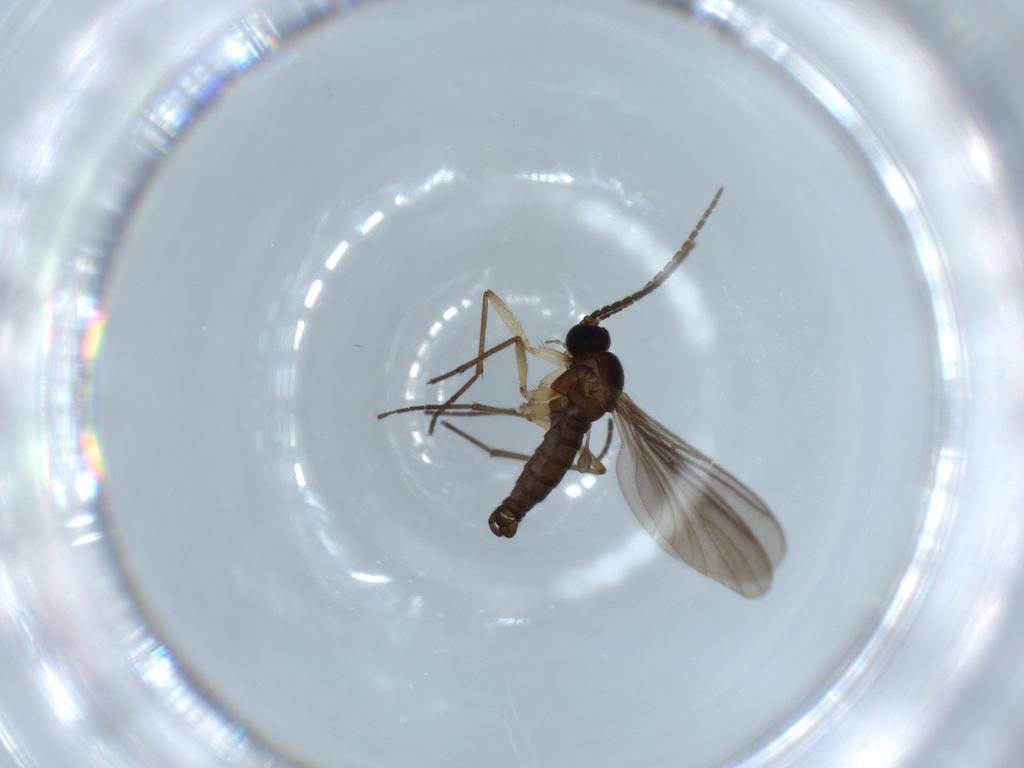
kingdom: Animalia
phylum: Arthropoda
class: Insecta
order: Diptera
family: Sciaridae
